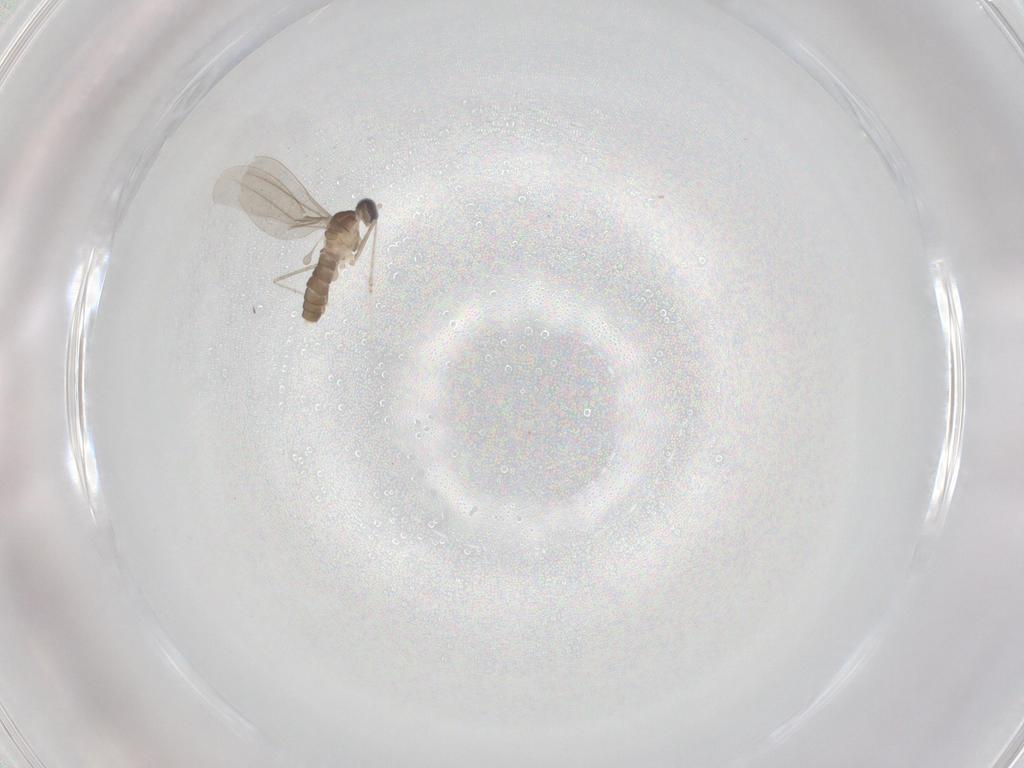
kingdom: Animalia
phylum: Arthropoda
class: Insecta
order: Diptera
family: Cecidomyiidae
